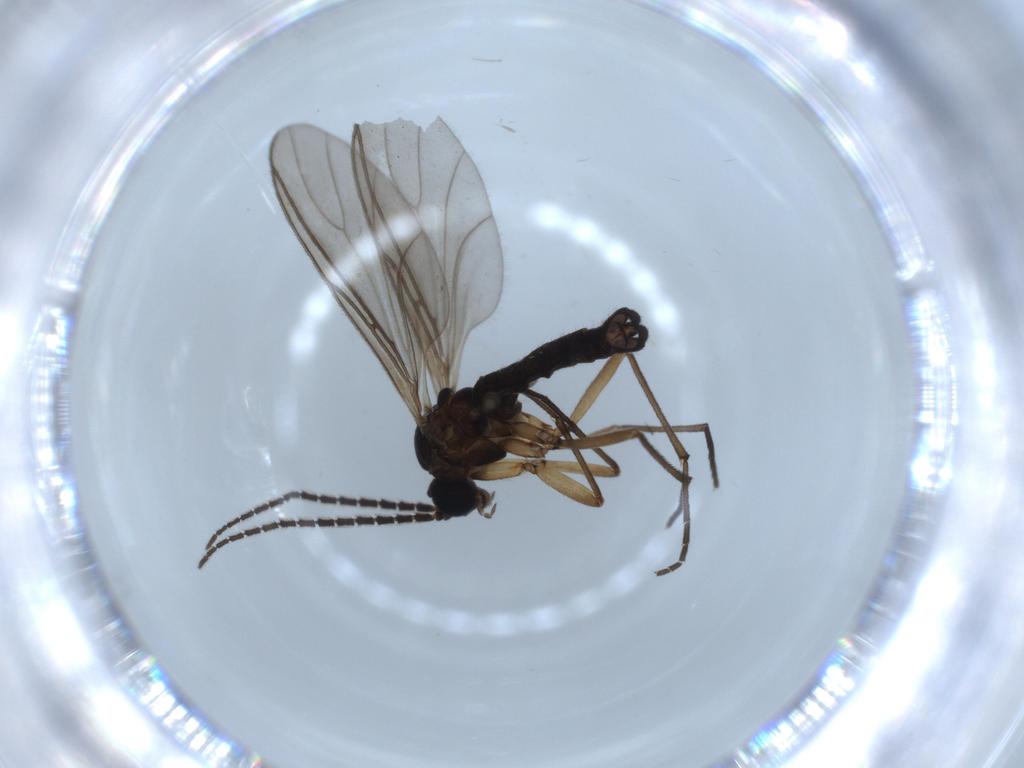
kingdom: Animalia
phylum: Arthropoda
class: Insecta
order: Diptera
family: Sciaridae
